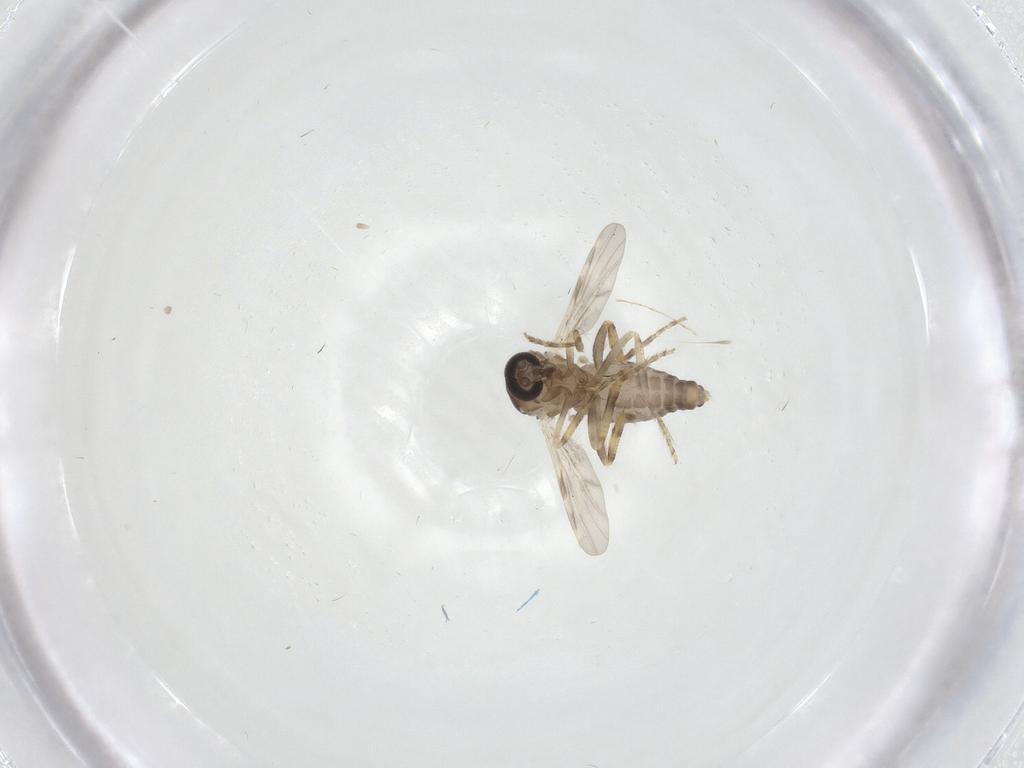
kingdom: Animalia
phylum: Arthropoda
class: Insecta
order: Diptera
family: Ceratopogonidae
